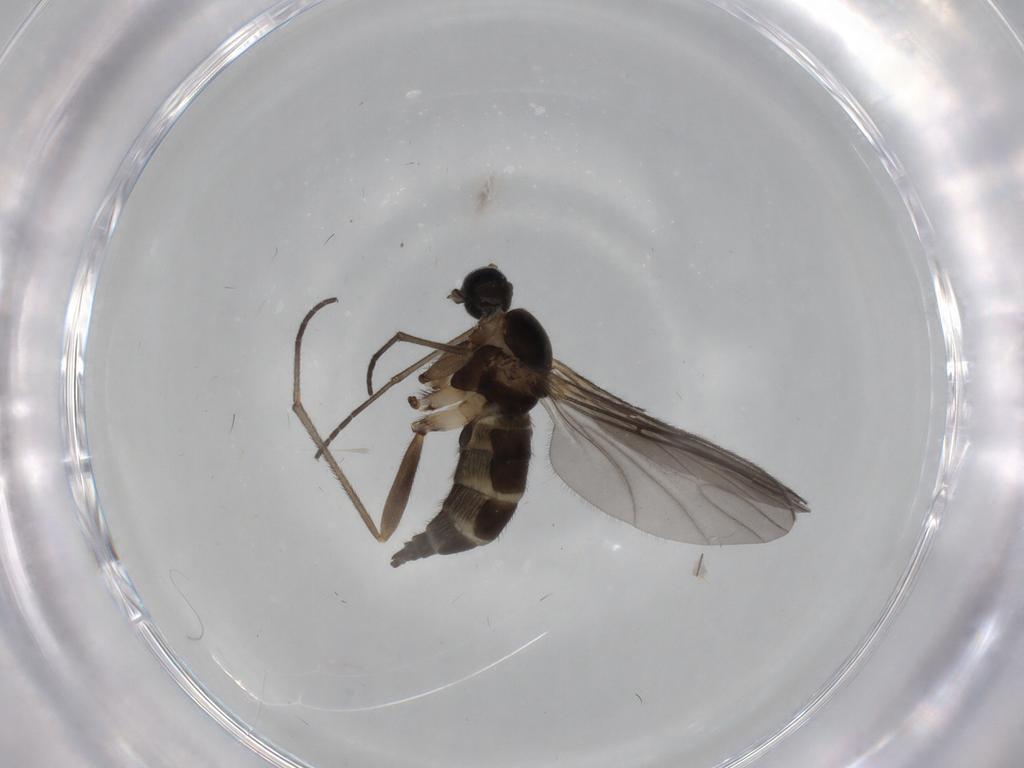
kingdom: Animalia
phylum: Arthropoda
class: Insecta
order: Diptera
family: Sciaridae
